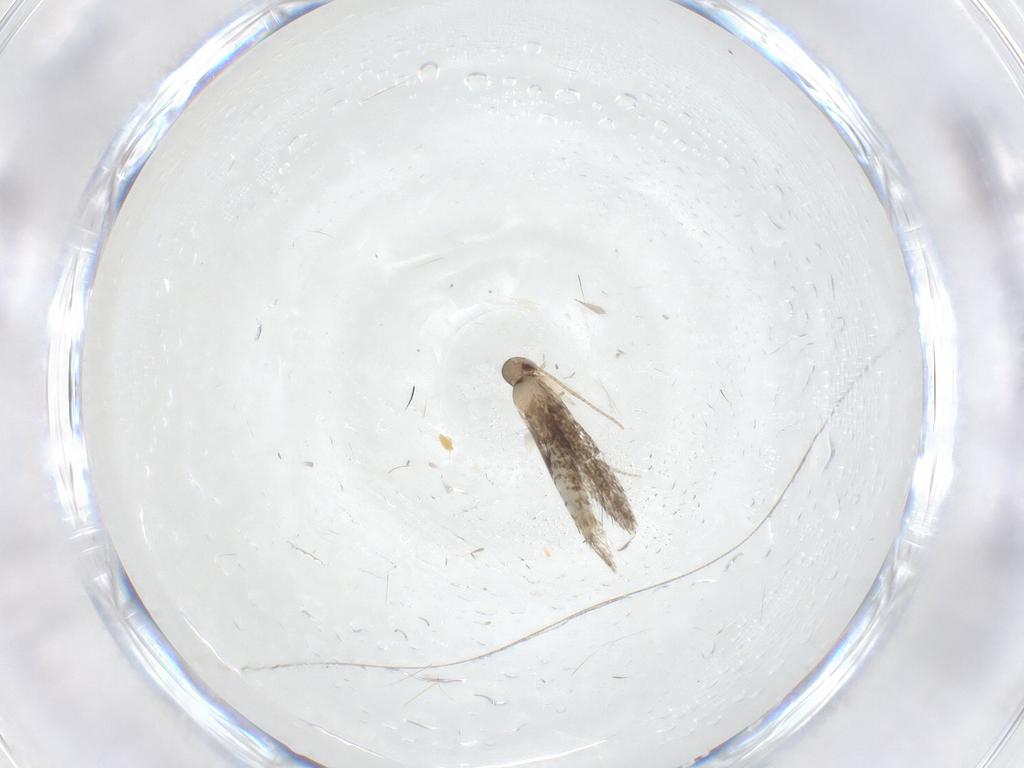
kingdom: Animalia
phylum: Arthropoda
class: Insecta
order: Lepidoptera
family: Gracillariidae
